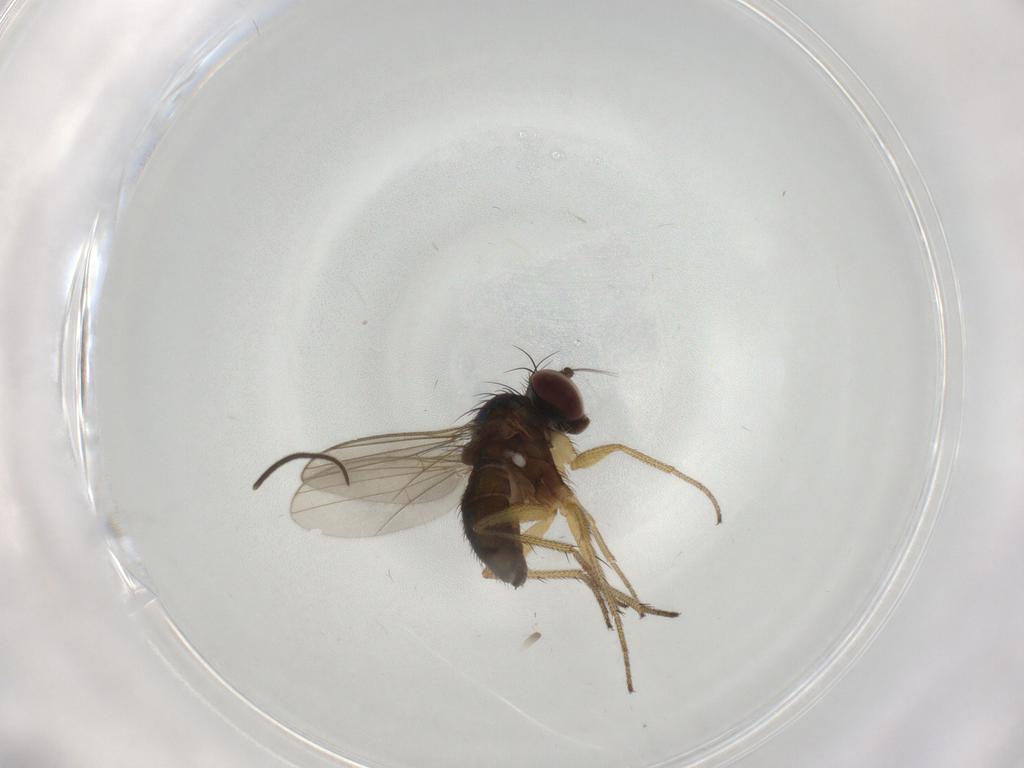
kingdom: Animalia
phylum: Arthropoda
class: Insecta
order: Diptera
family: Sciaridae
